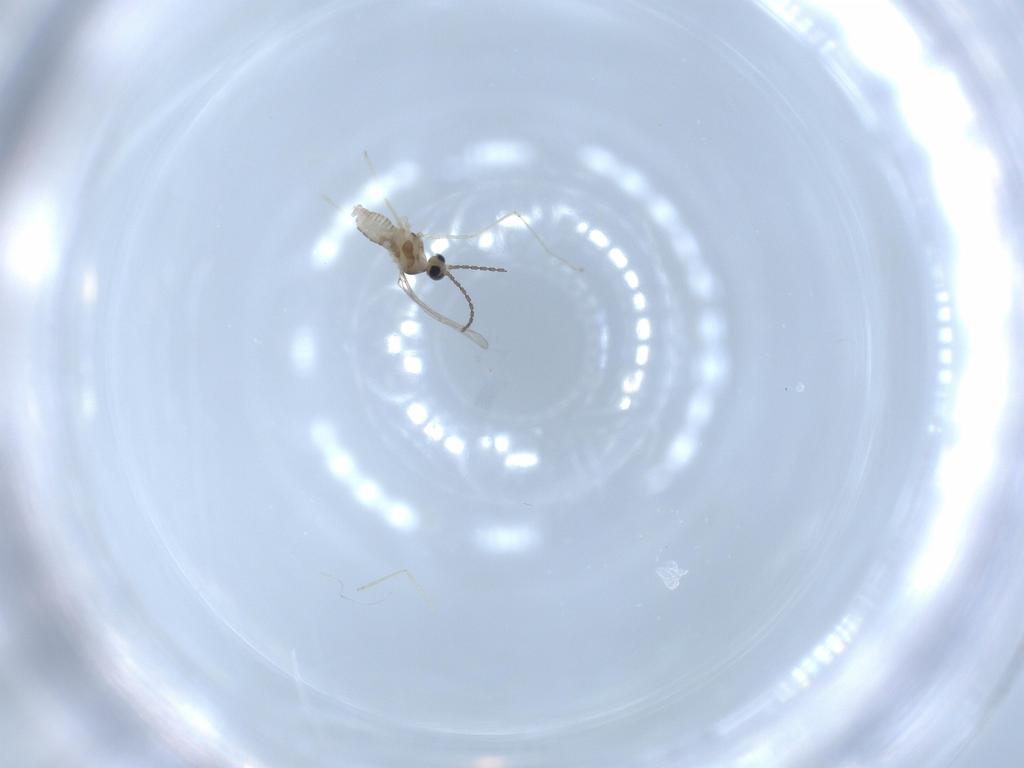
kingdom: Animalia
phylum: Arthropoda
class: Insecta
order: Diptera
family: Cecidomyiidae
